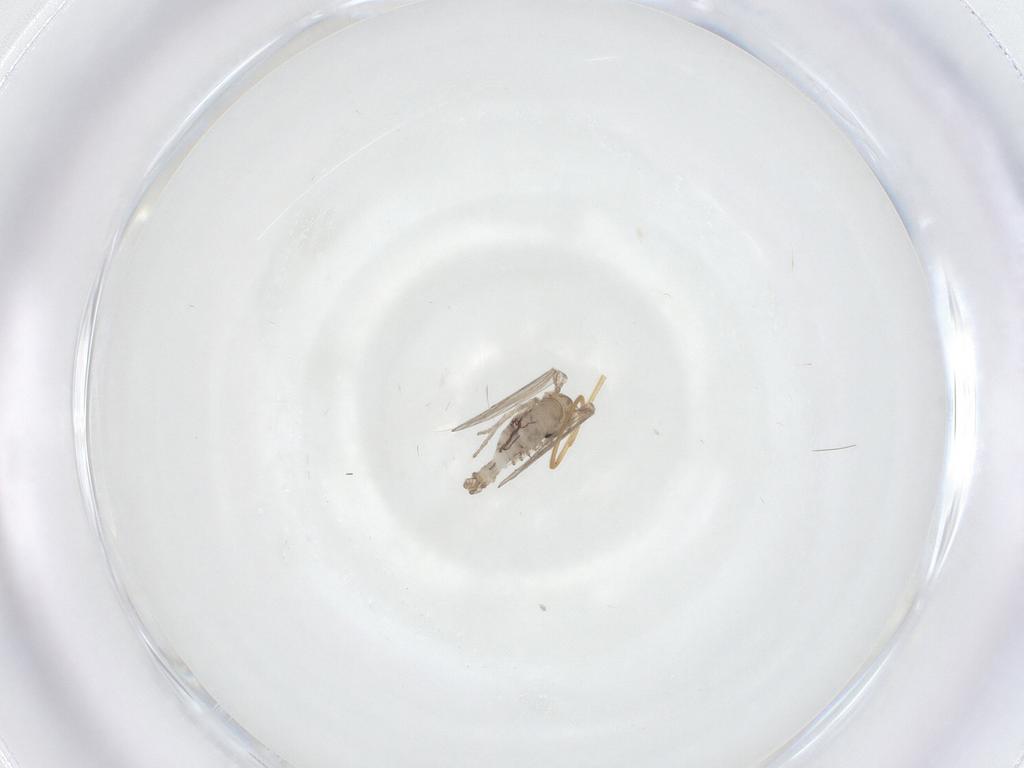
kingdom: Animalia
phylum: Arthropoda
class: Insecta
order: Diptera
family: Psychodidae
